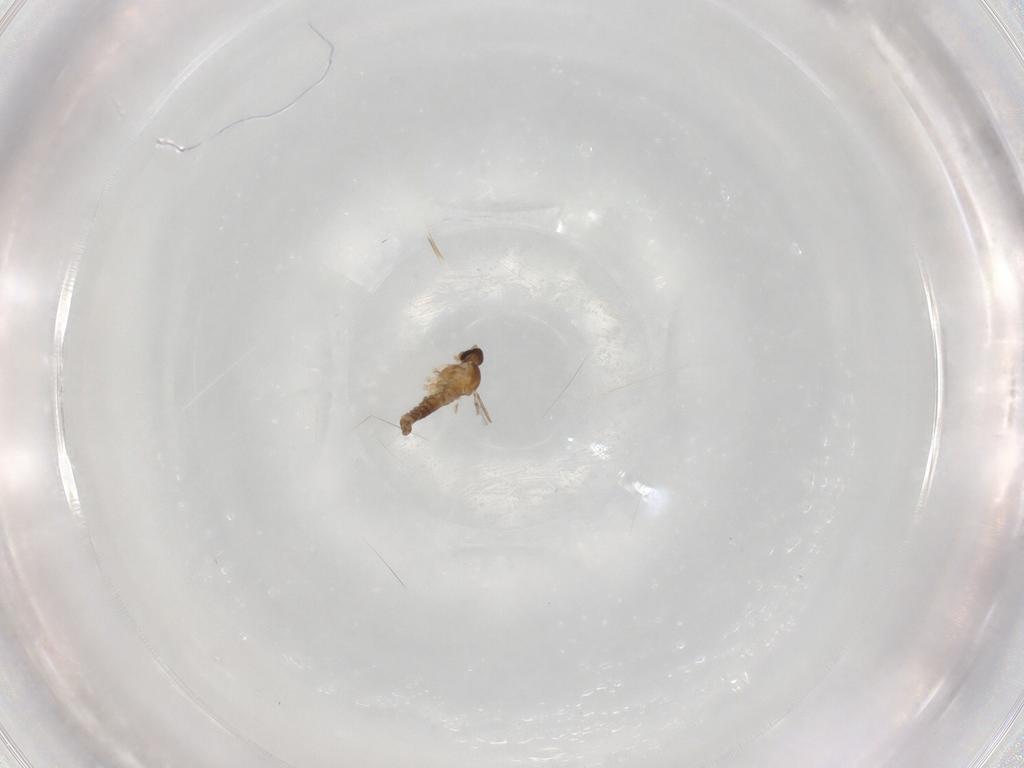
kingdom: Animalia
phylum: Arthropoda
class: Insecta
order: Diptera
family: Cecidomyiidae
